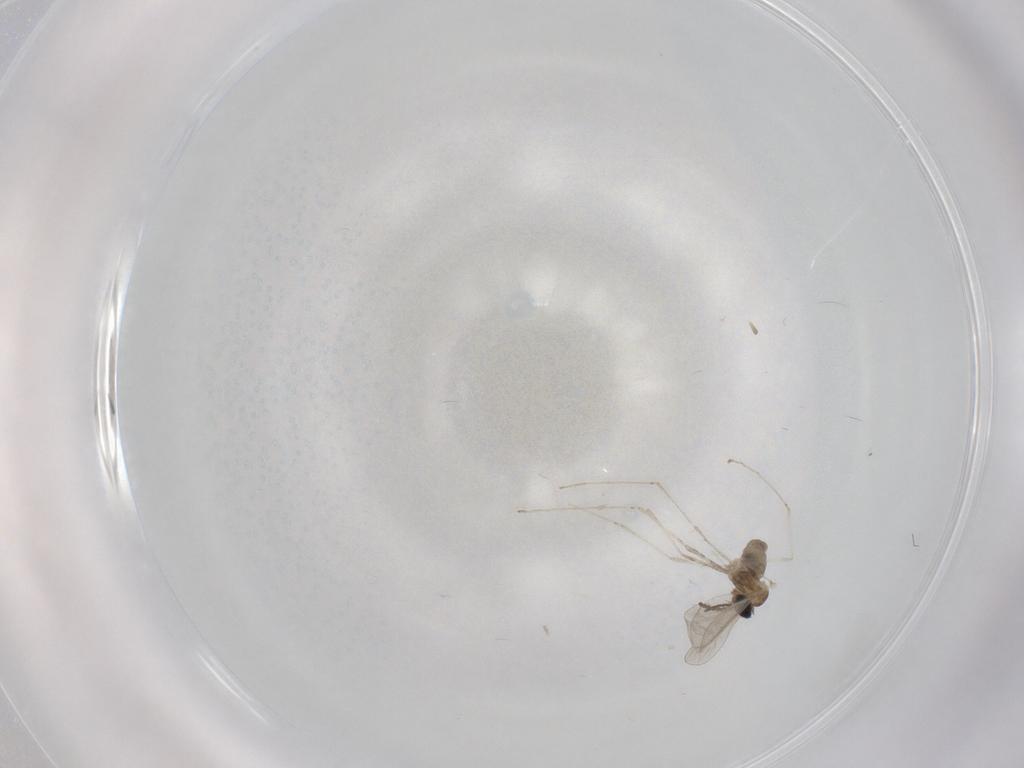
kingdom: Animalia
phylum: Arthropoda
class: Insecta
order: Diptera
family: Cecidomyiidae
